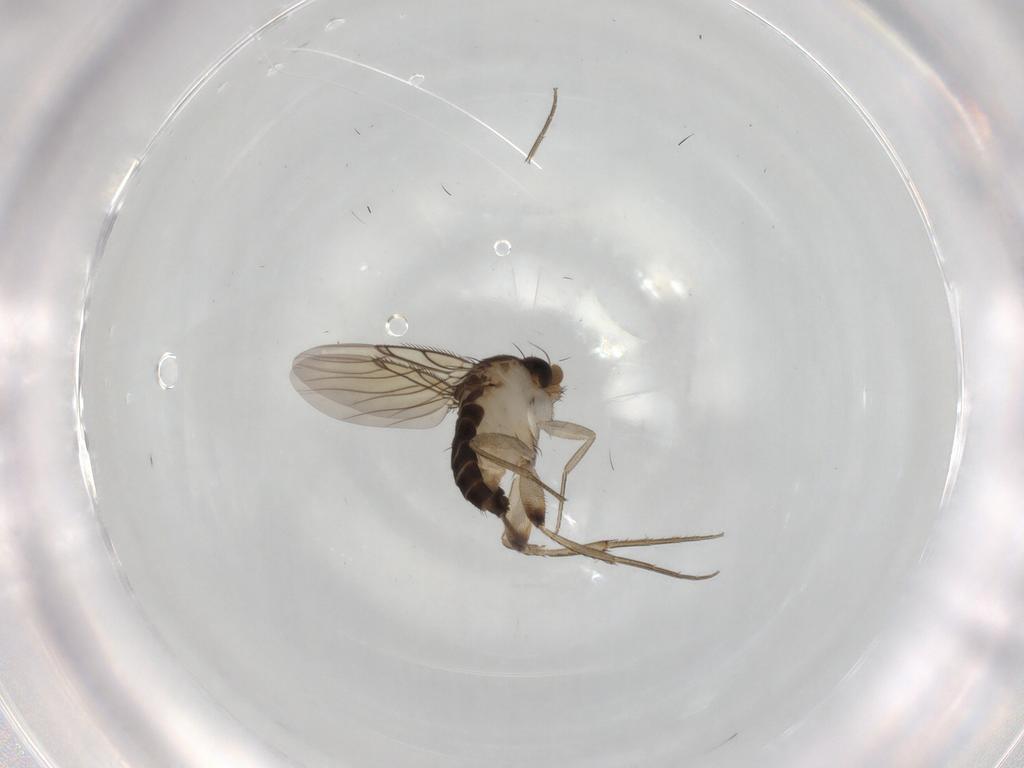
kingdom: Animalia
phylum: Arthropoda
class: Insecta
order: Diptera
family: Phoridae
